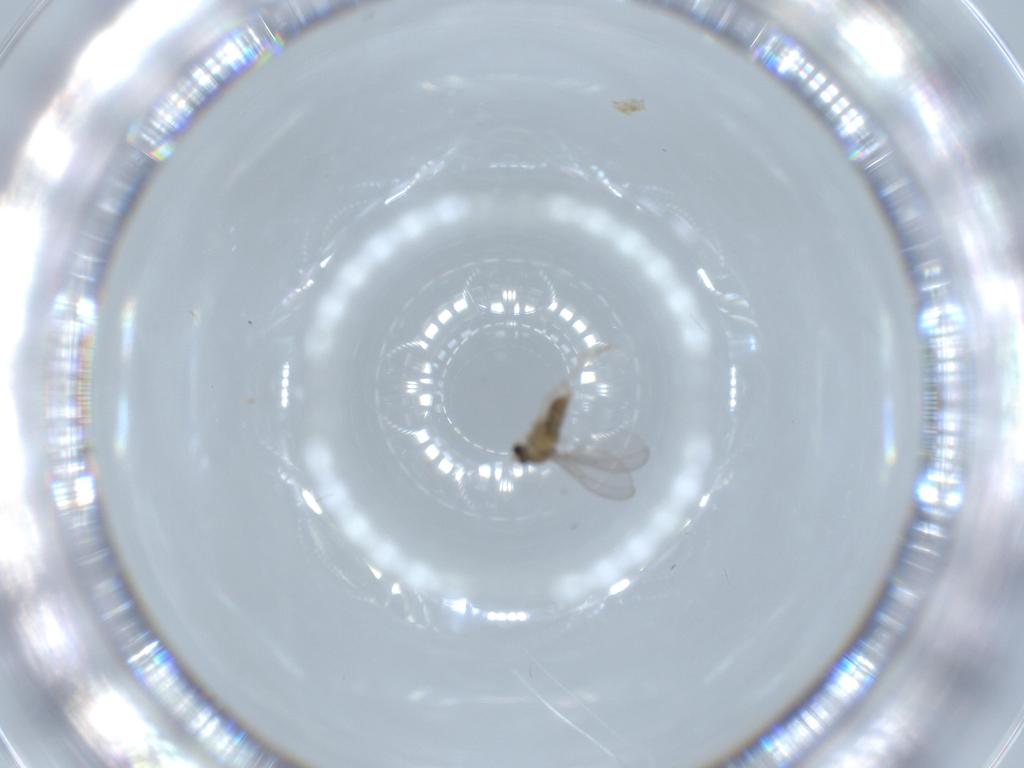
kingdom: Animalia
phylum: Arthropoda
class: Insecta
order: Diptera
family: Cecidomyiidae
